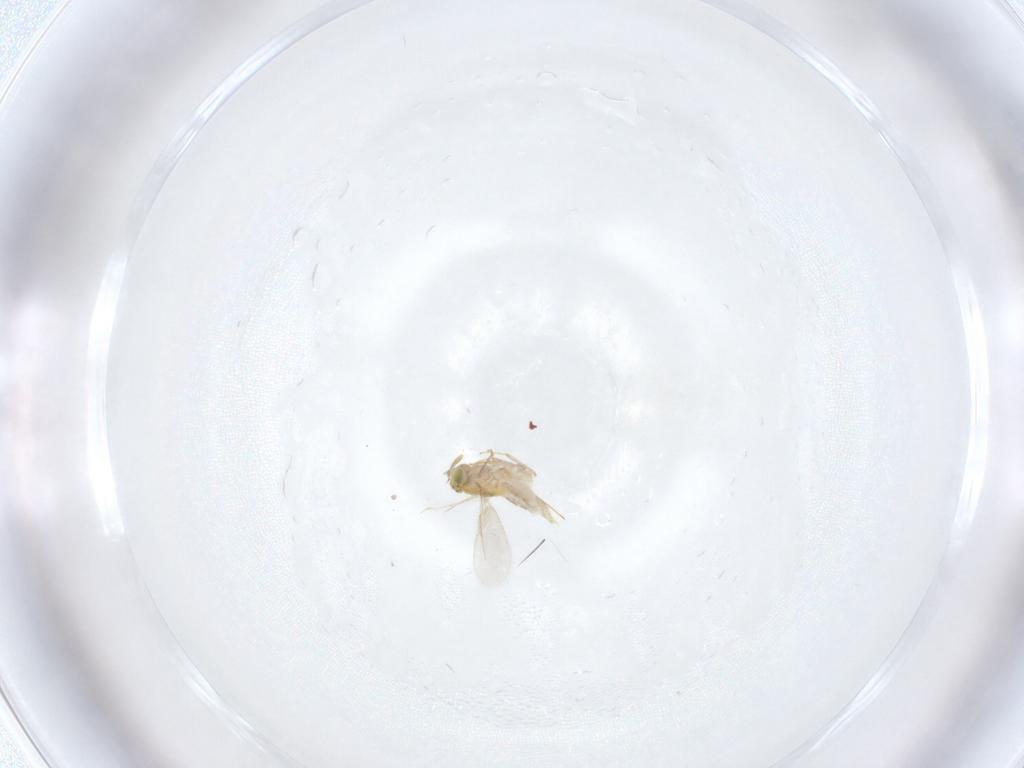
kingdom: Animalia
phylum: Arthropoda
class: Insecta
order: Hymenoptera
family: Aphelinidae
